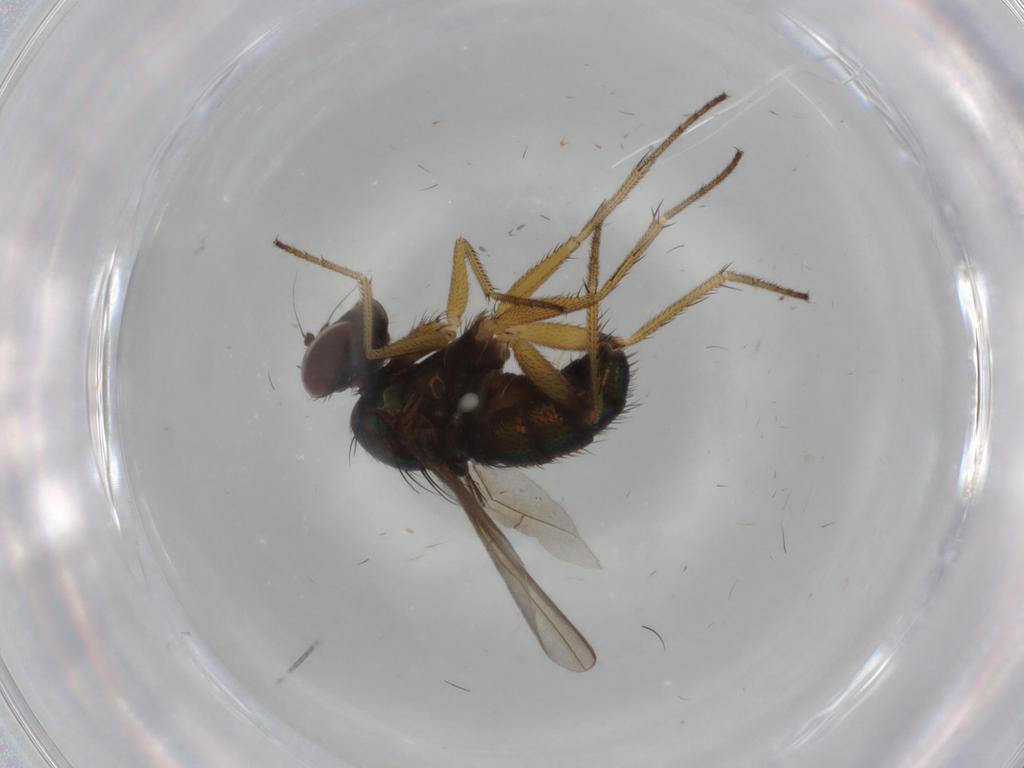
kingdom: Animalia
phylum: Arthropoda
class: Insecta
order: Diptera
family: Dolichopodidae
